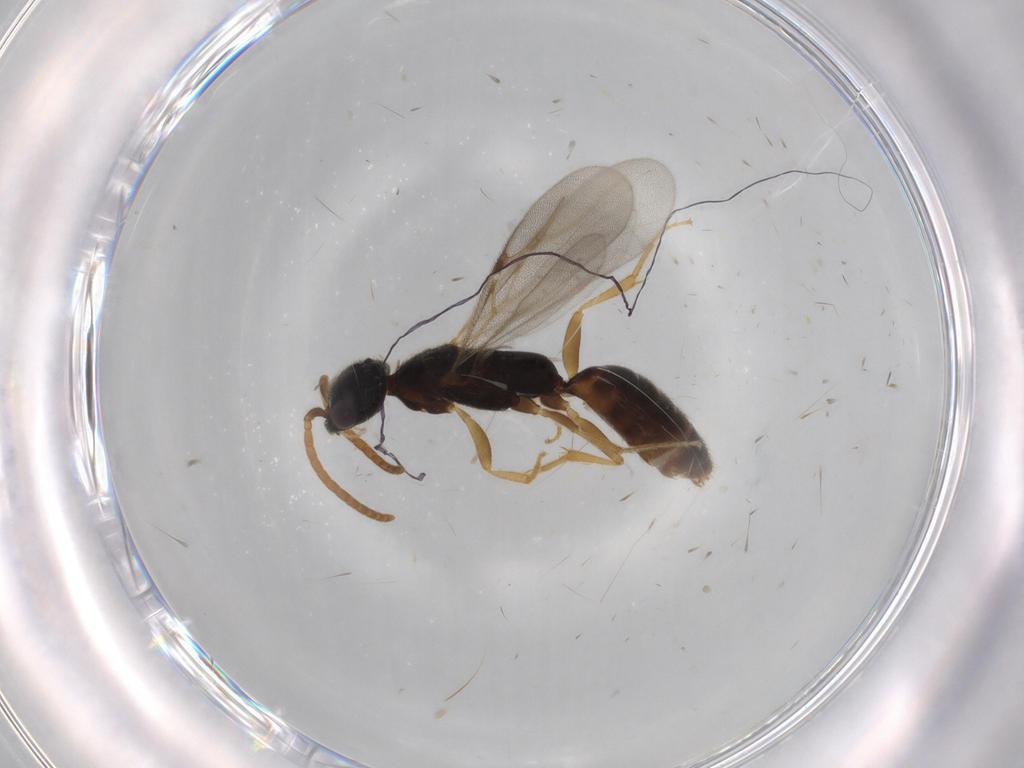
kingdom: Animalia
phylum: Arthropoda
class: Insecta
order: Hymenoptera
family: Bethylidae
